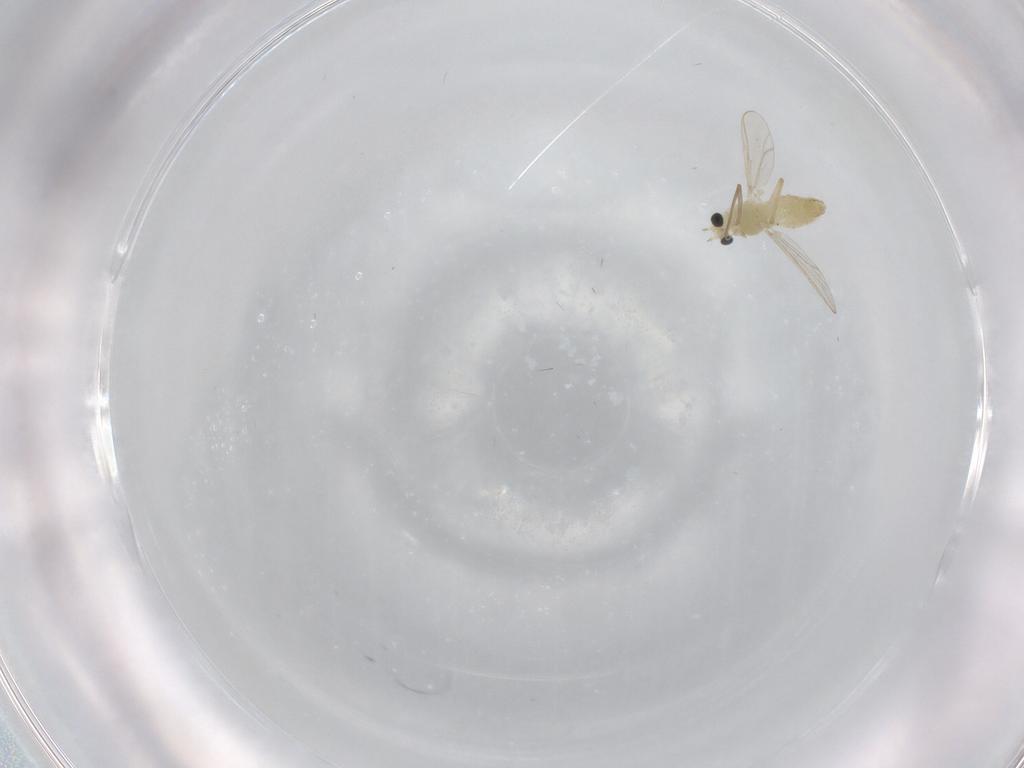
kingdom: Animalia
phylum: Arthropoda
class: Insecta
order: Diptera
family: Chironomidae
